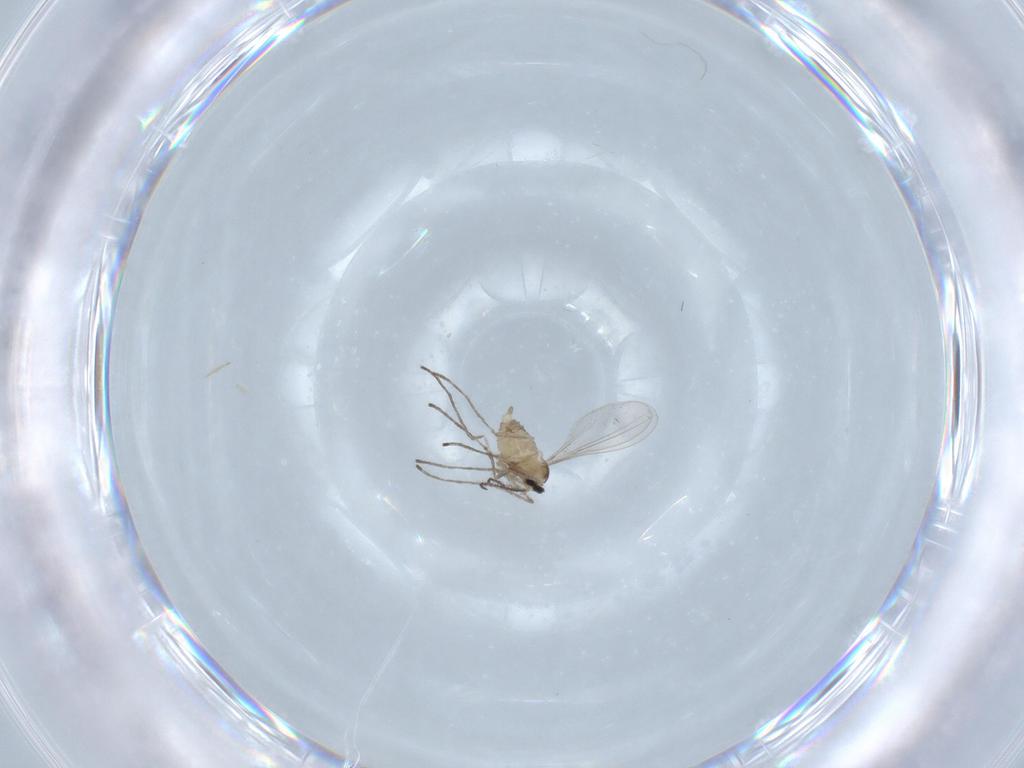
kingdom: Animalia
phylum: Arthropoda
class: Insecta
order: Diptera
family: Cecidomyiidae
